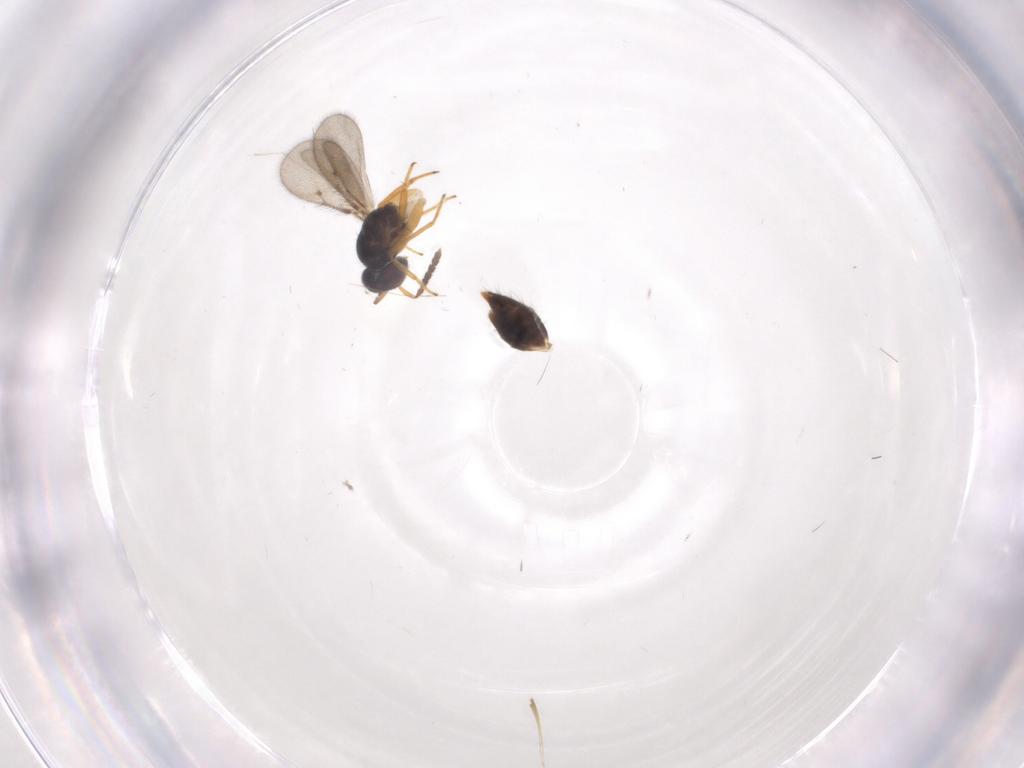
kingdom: Animalia
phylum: Arthropoda
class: Insecta
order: Hymenoptera
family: Eulophidae
